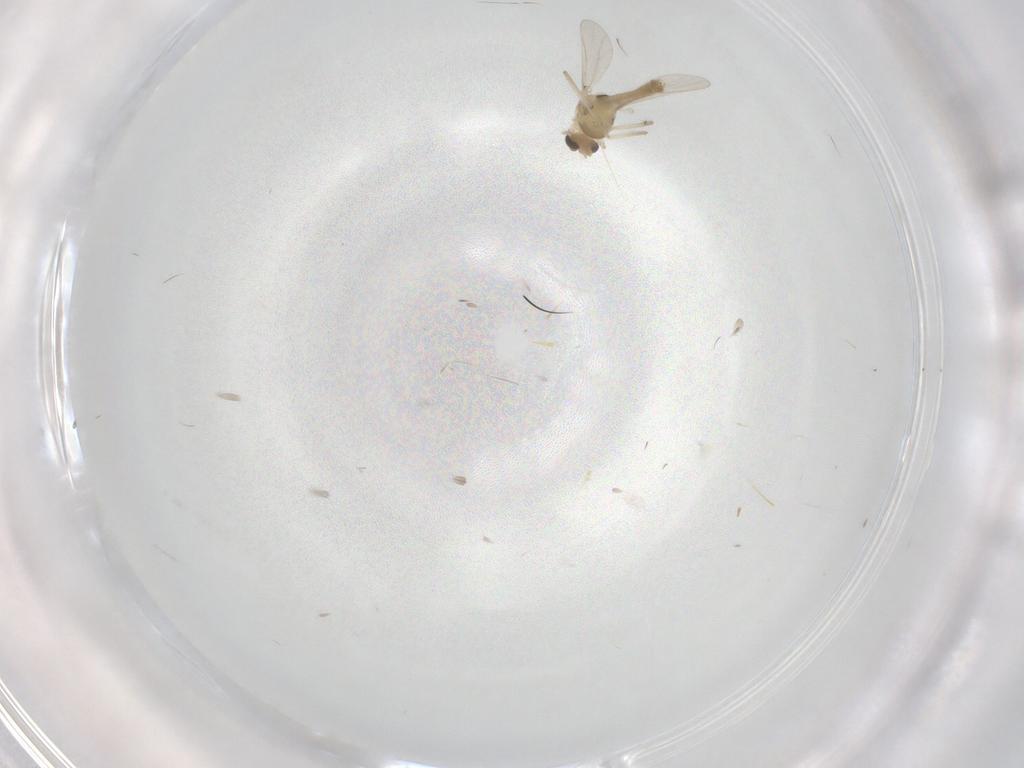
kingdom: Animalia
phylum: Arthropoda
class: Insecta
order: Diptera
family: Chironomidae
